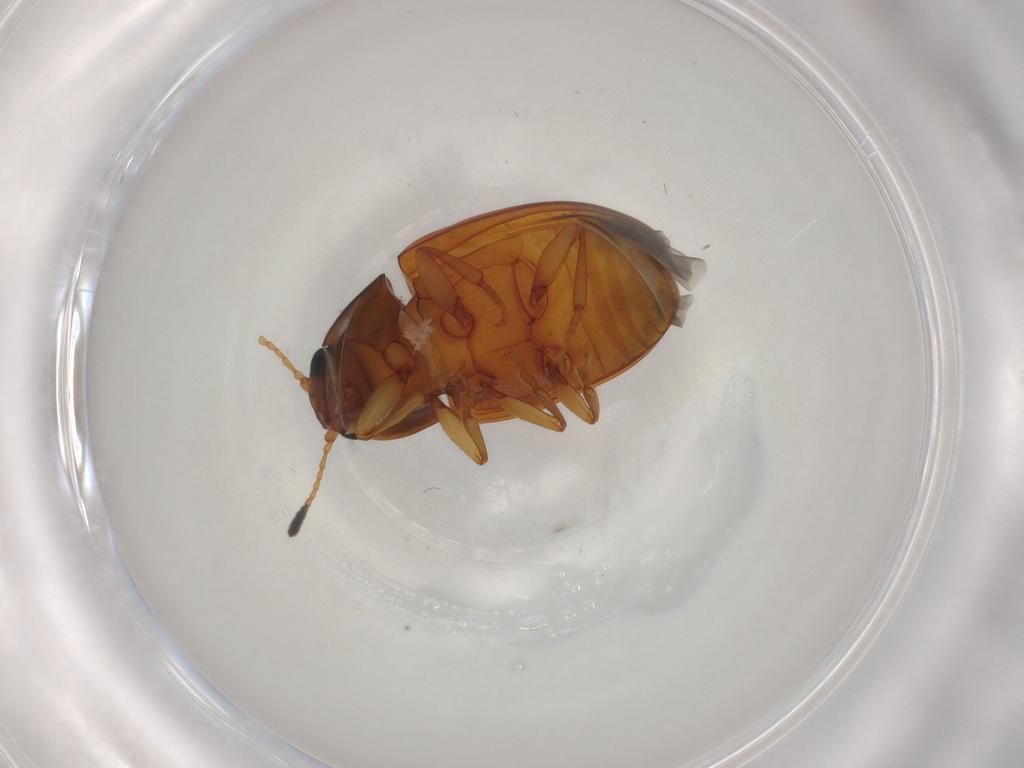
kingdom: Animalia
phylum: Arthropoda
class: Insecta
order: Coleoptera
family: Erotylidae
